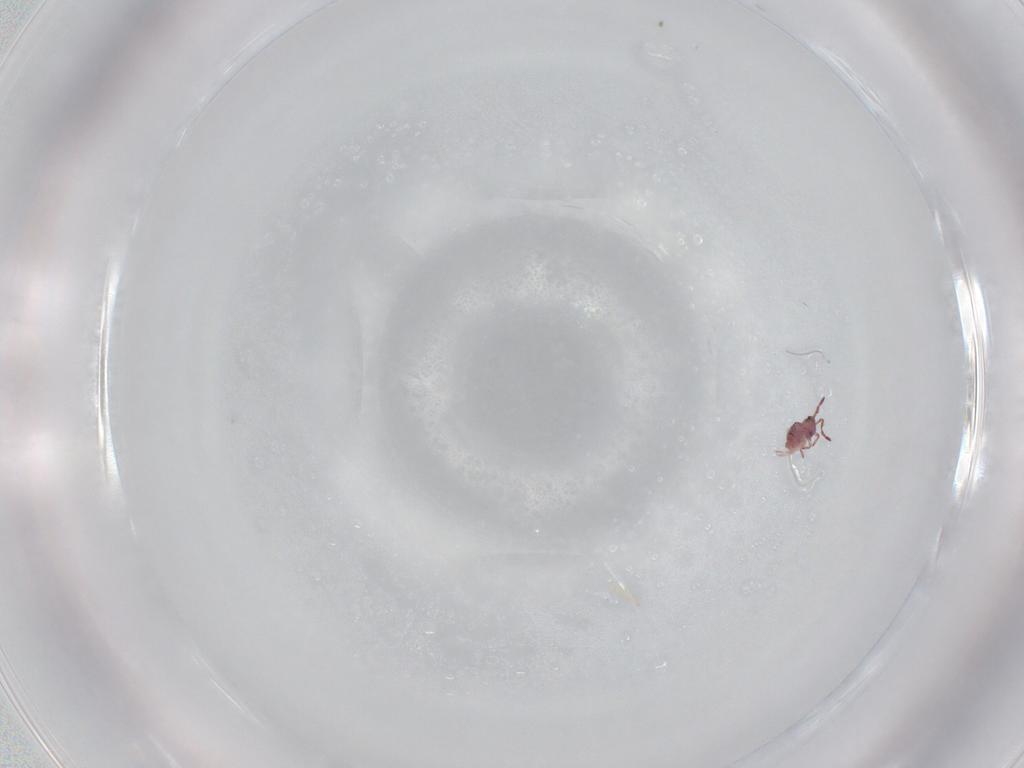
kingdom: Animalia
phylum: Arthropoda
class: Collembola
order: Symphypleona
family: Sminthurididae
